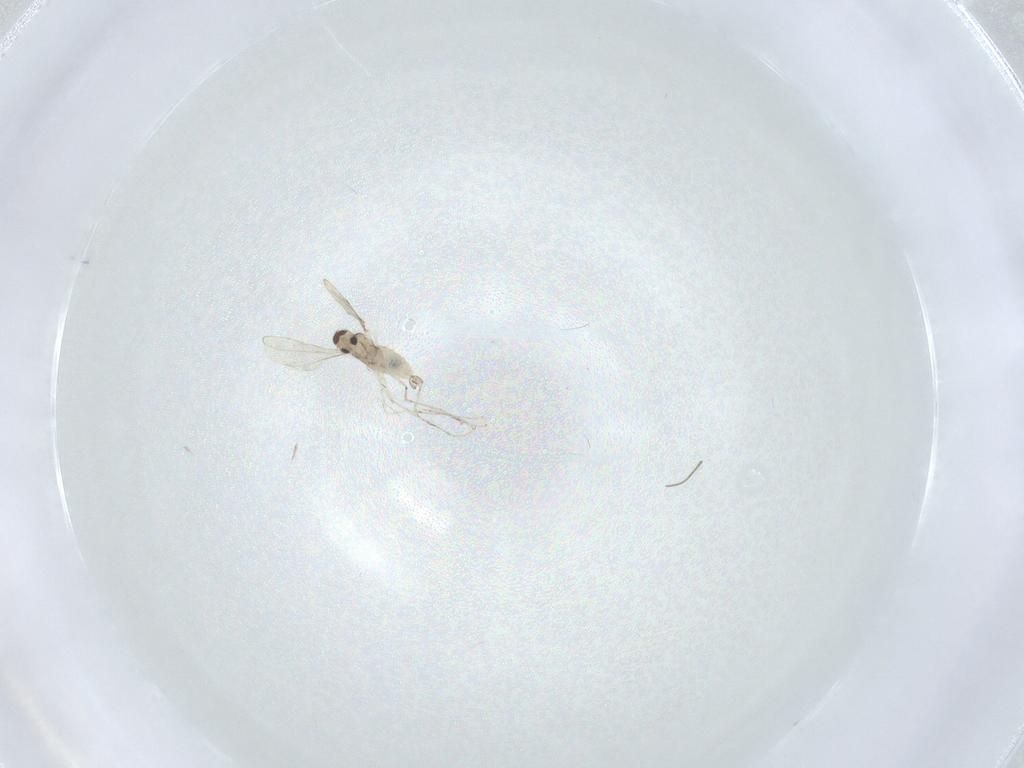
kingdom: Animalia
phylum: Arthropoda
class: Insecta
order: Diptera
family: Cecidomyiidae
